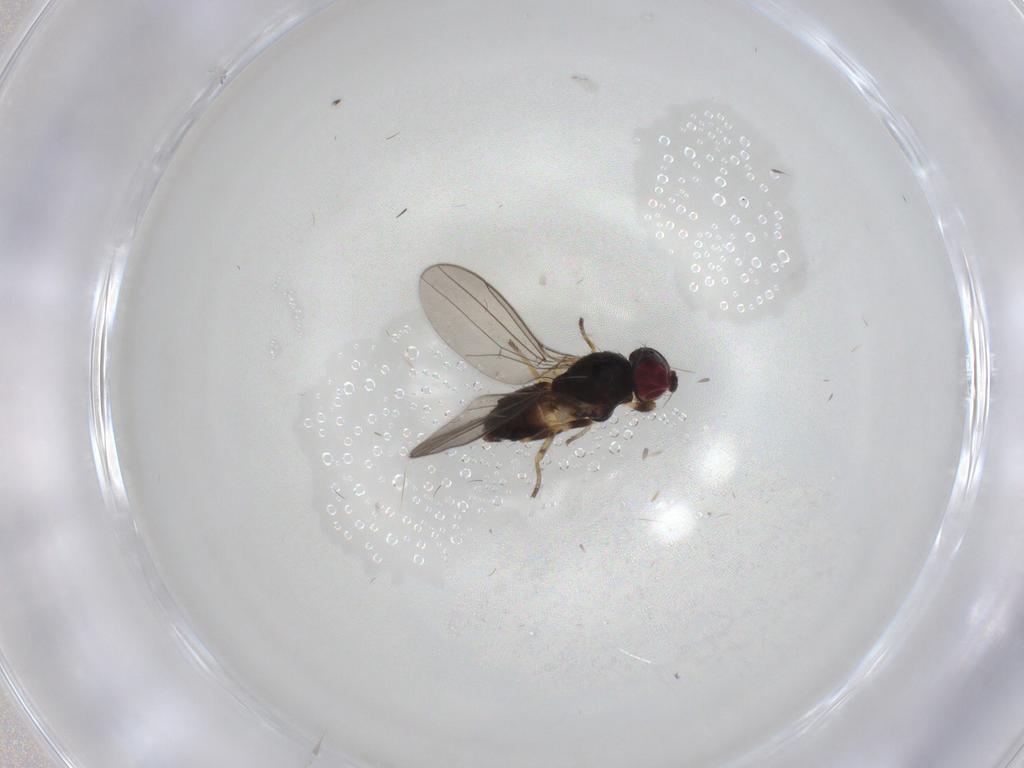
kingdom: Animalia
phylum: Arthropoda
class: Insecta
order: Diptera
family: Chloropidae
